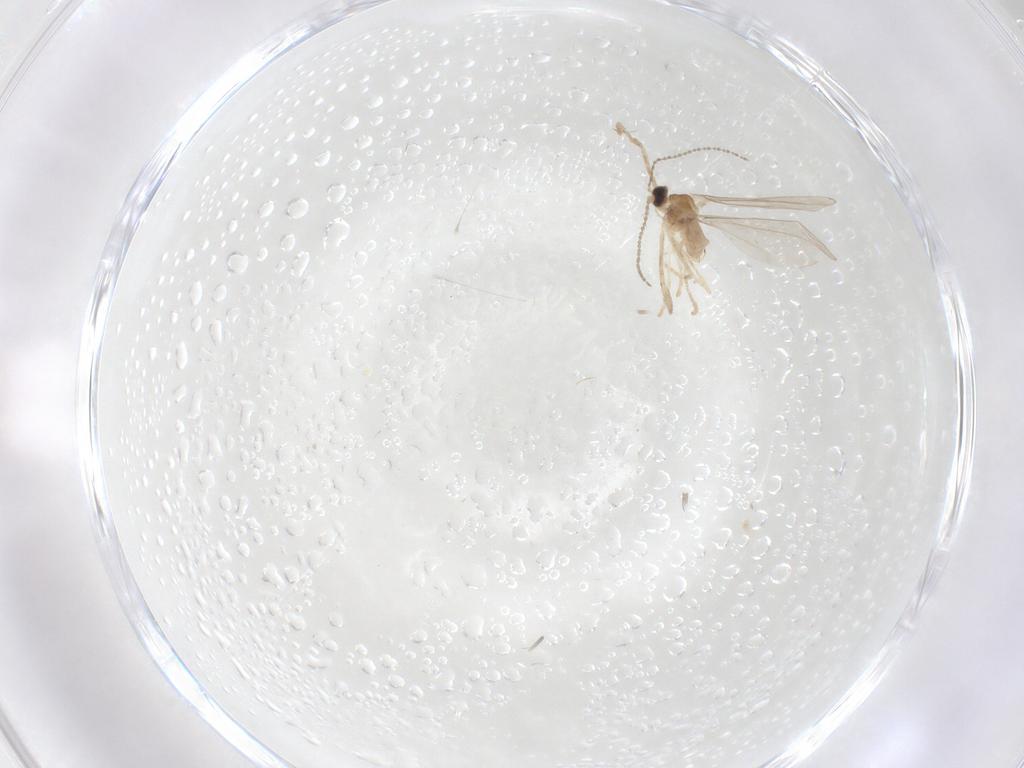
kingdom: Animalia
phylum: Arthropoda
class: Insecta
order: Diptera
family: Cecidomyiidae
